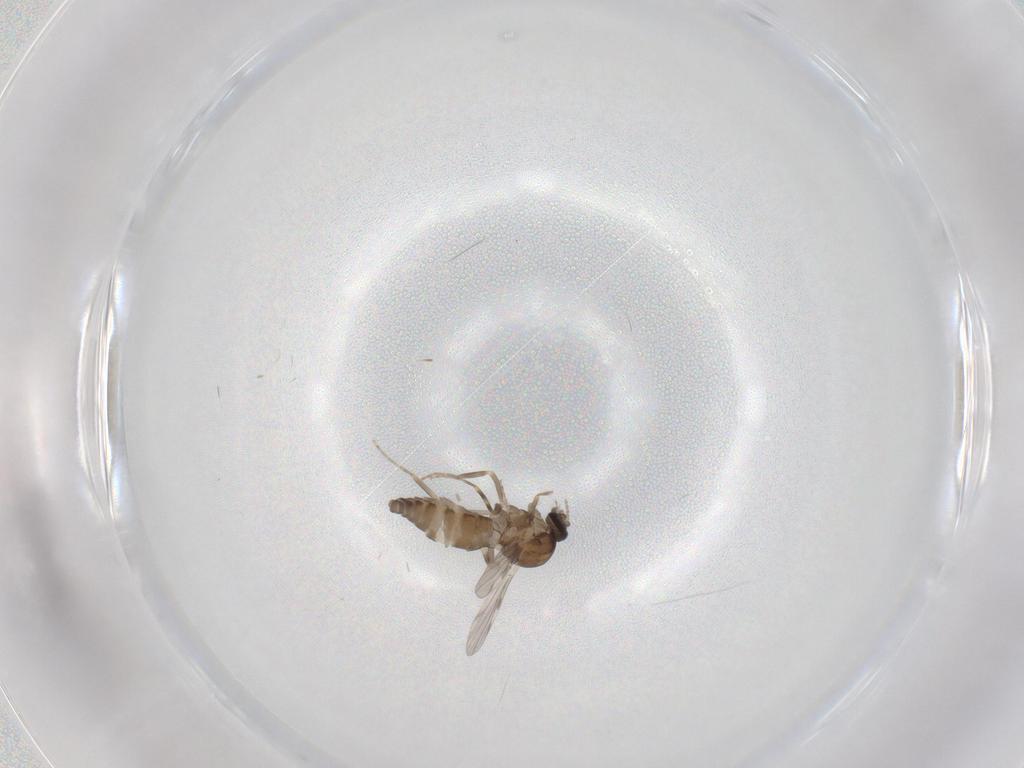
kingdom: Animalia
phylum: Arthropoda
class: Insecta
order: Diptera
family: Ceratopogonidae
